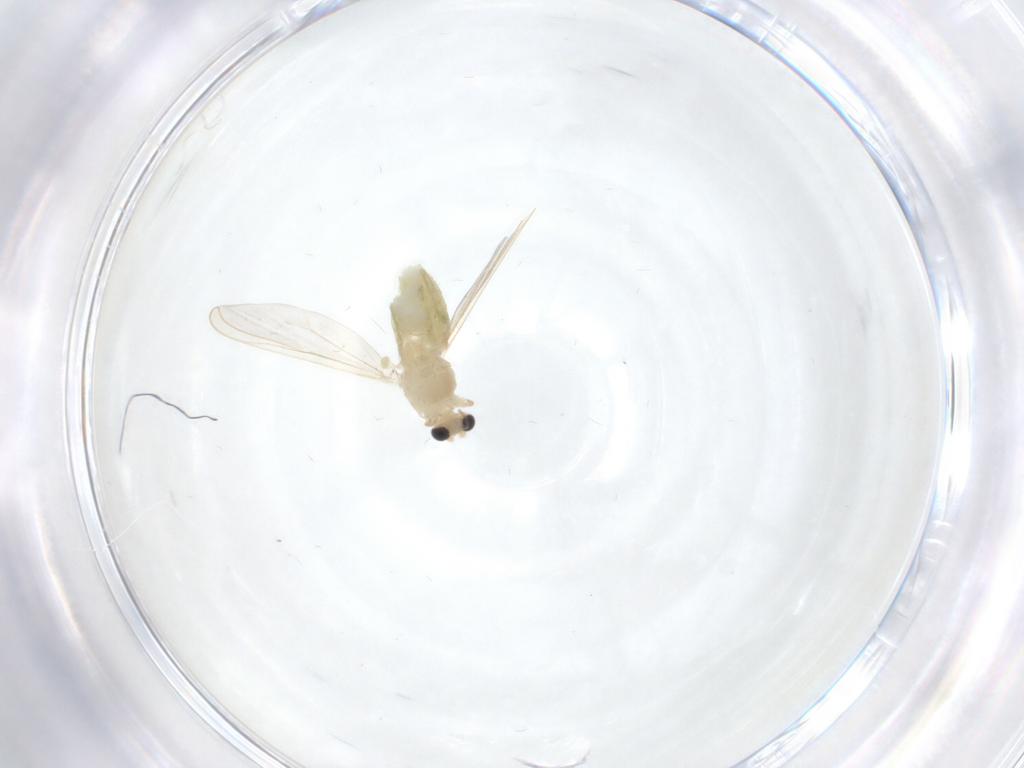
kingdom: Animalia
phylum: Arthropoda
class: Insecta
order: Diptera
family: Chironomidae
